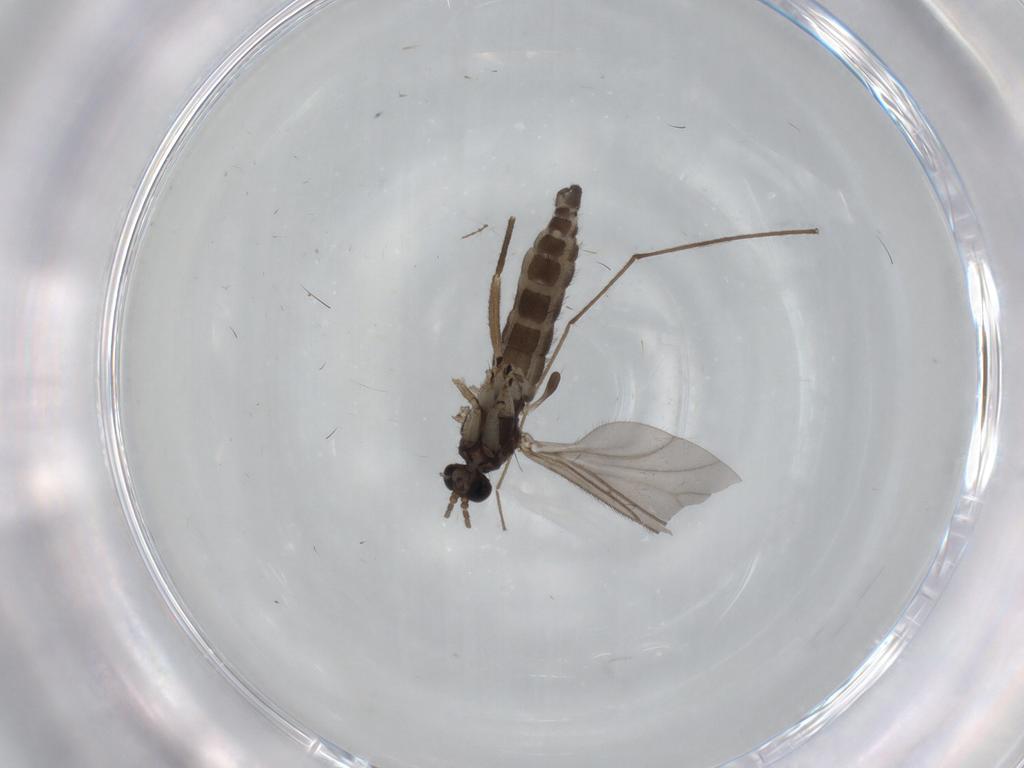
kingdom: Animalia
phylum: Arthropoda
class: Insecta
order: Diptera
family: Sciaridae
